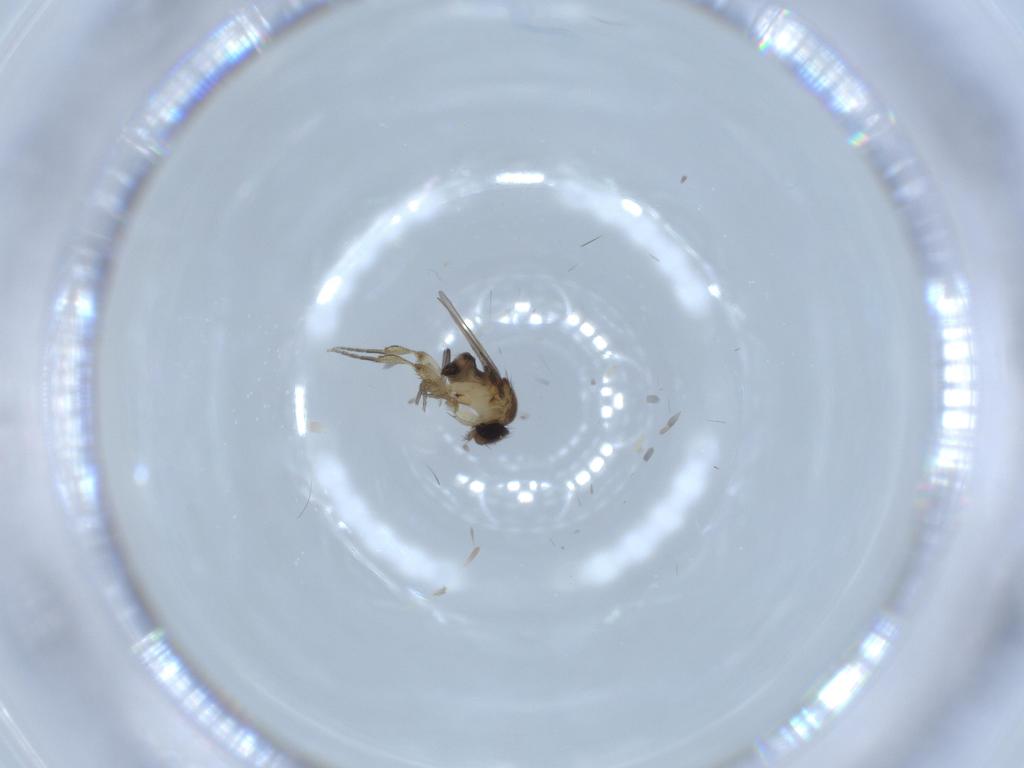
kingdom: Animalia
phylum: Arthropoda
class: Insecta
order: Diptera
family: Phoridae
